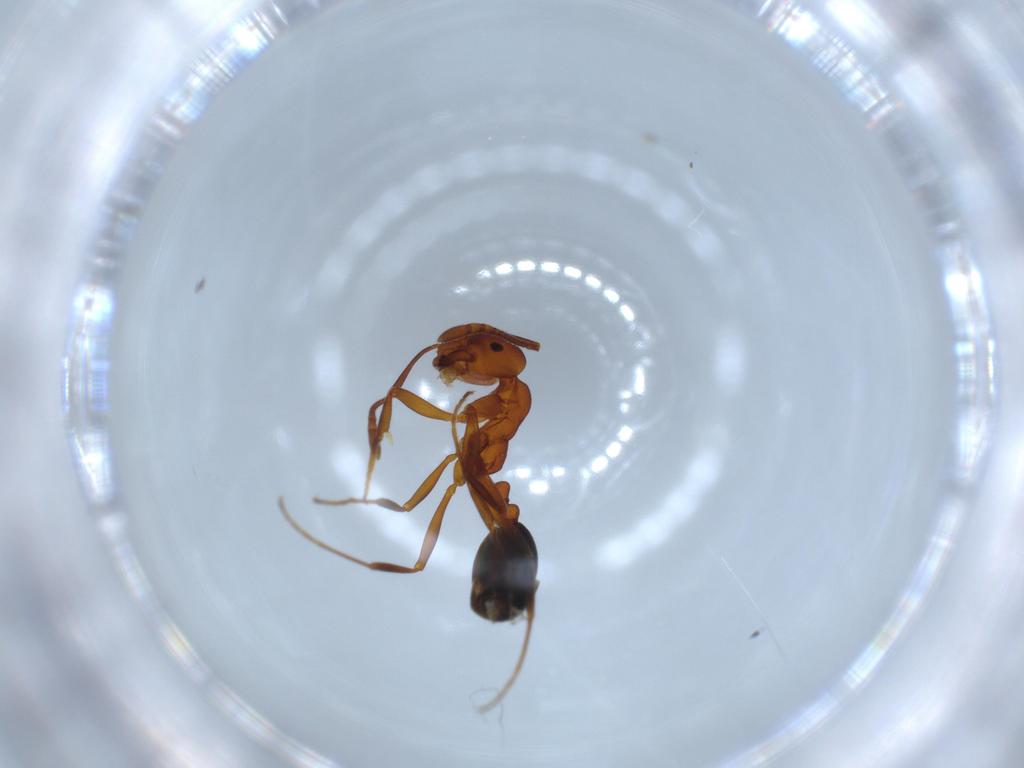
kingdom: Animalia
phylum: Arthropoda
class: Insecta
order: Hymenoptera
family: Formicidae
